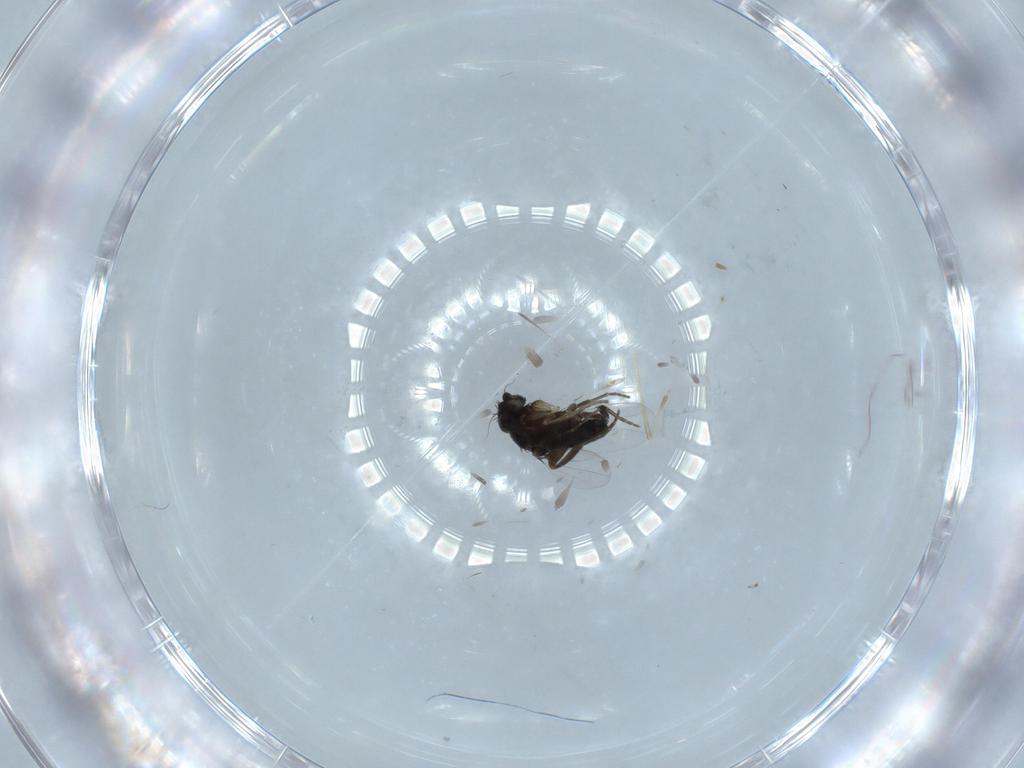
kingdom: Animalia
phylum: Arthropoda
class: Insecta
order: Diptera
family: Phoridae
